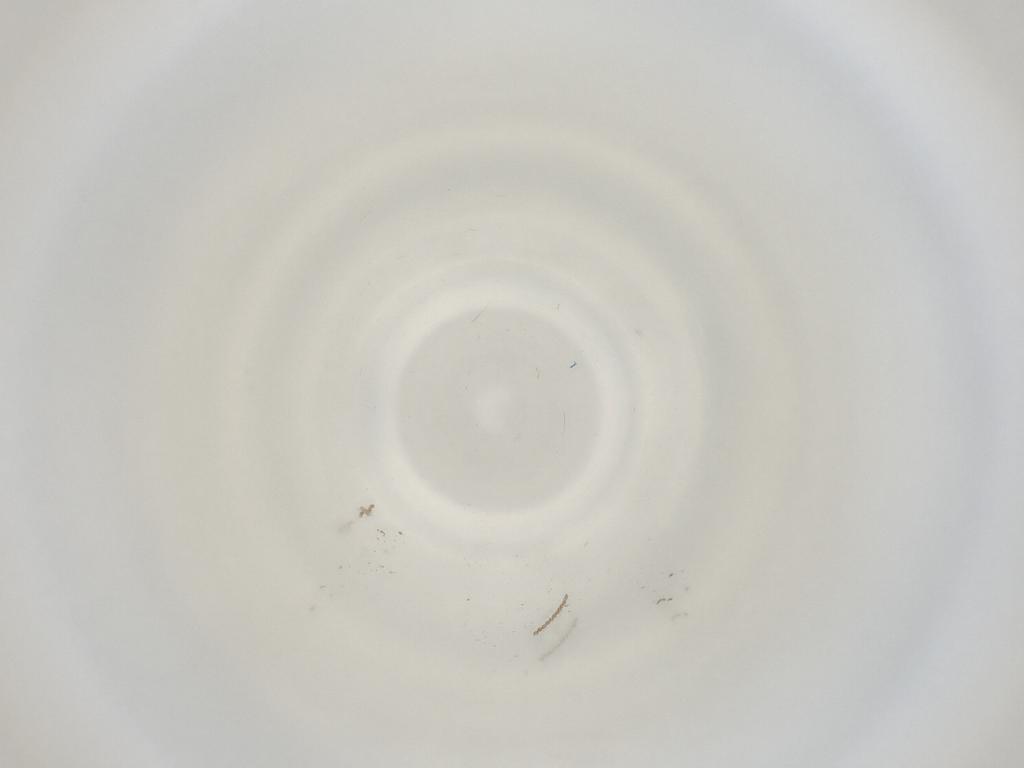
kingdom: Animalia
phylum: Arthropoda
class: Insecta
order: Diptera
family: Cecidomyiidae
